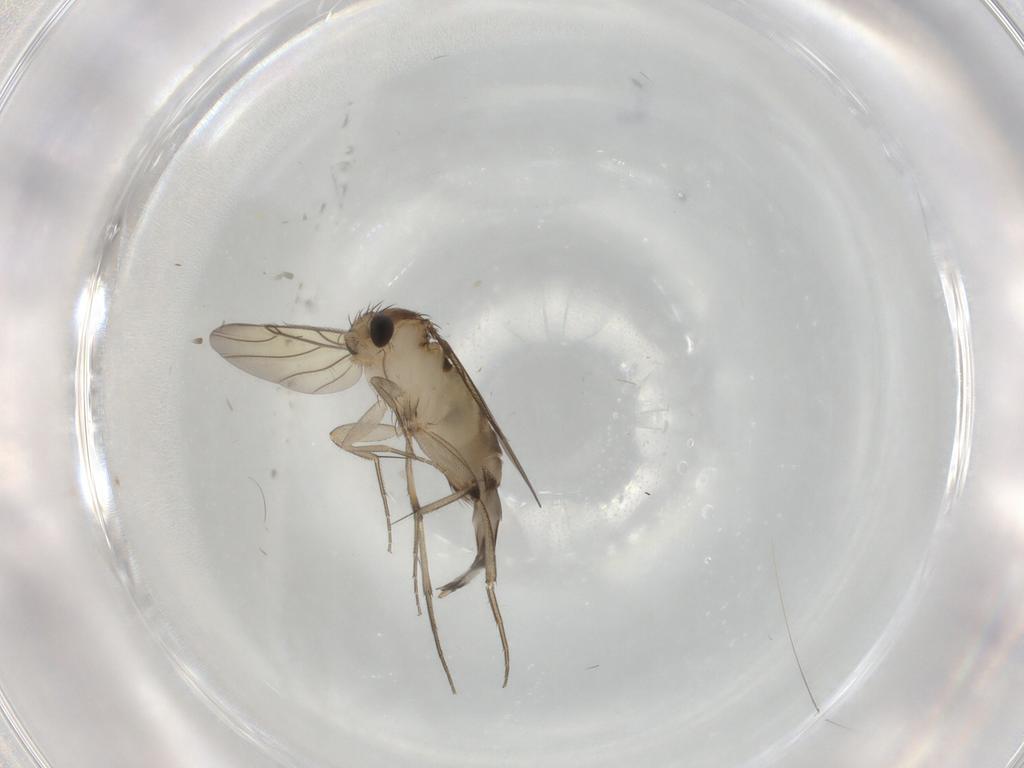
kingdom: Animalia
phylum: Arthropoda
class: Insecta
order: Diptera
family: Phoridae
